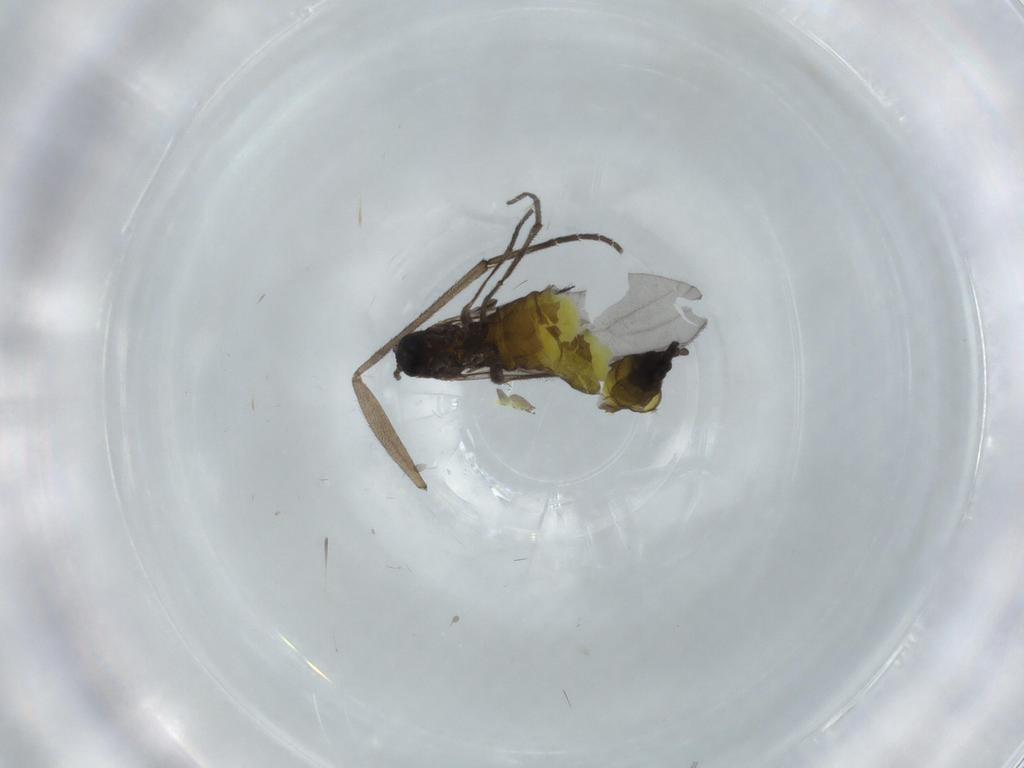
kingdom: Animalia
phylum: Arthropoda
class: Insecta
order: Diptera
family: Sciaridae
